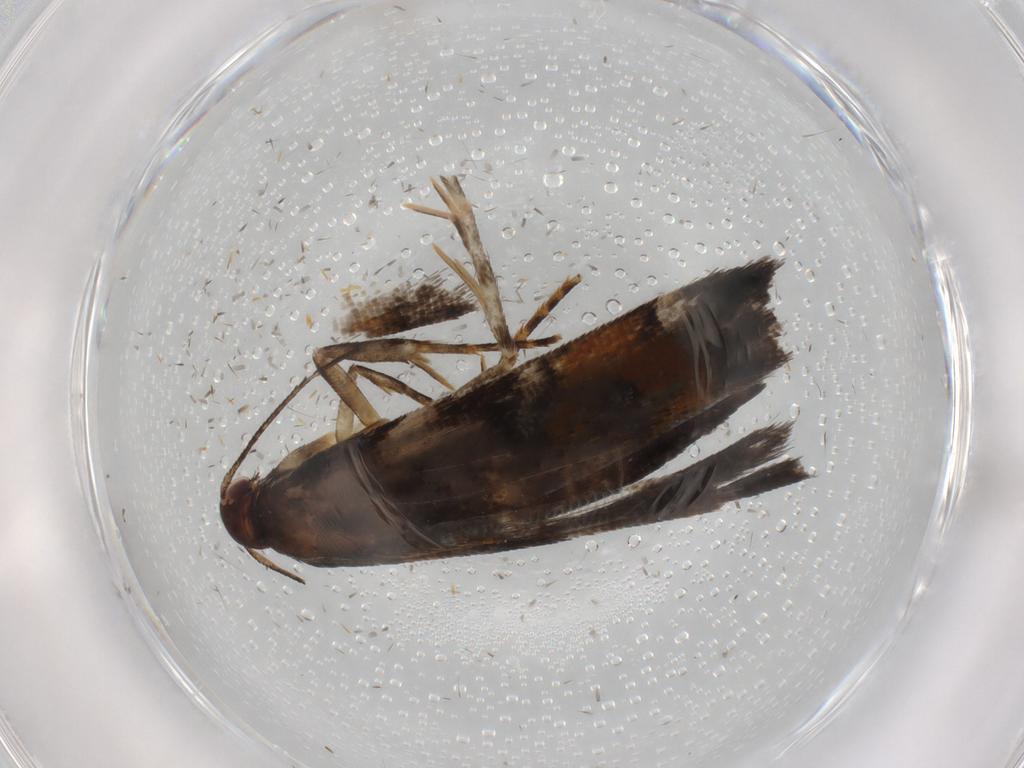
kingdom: Animalia
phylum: Arthropoda
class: Insecta
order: Lepidoptera
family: Gelechiidae
